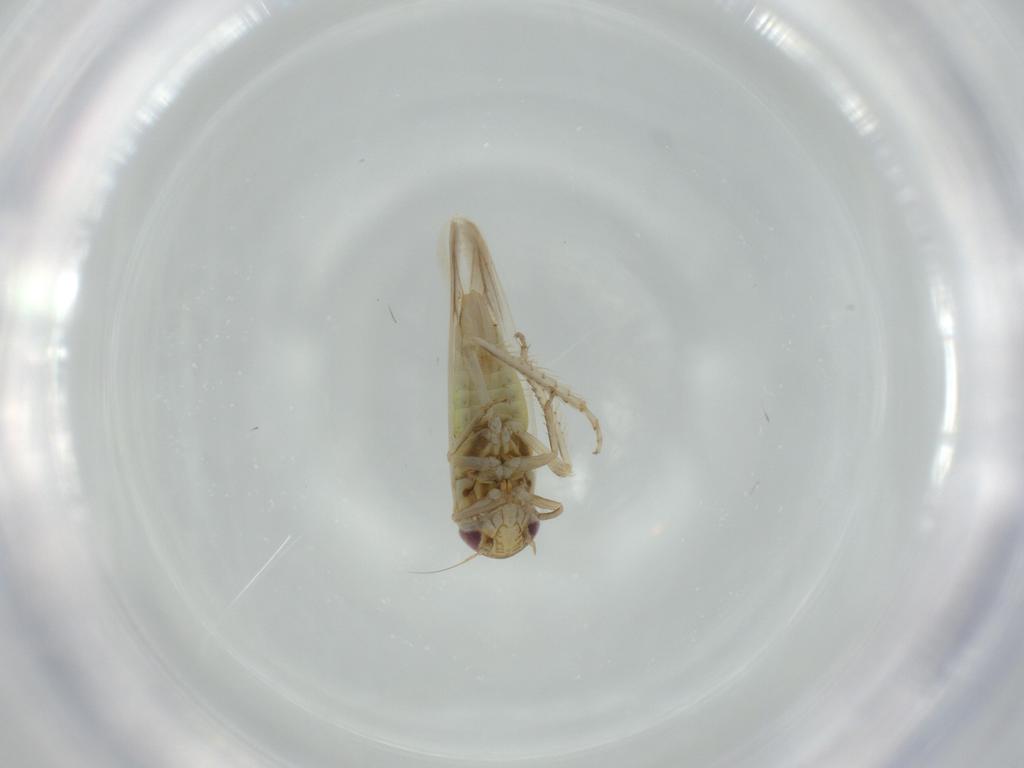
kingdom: Animalia
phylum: Arthropoda
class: Insecta
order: Hemiptera
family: Cicadellidae
